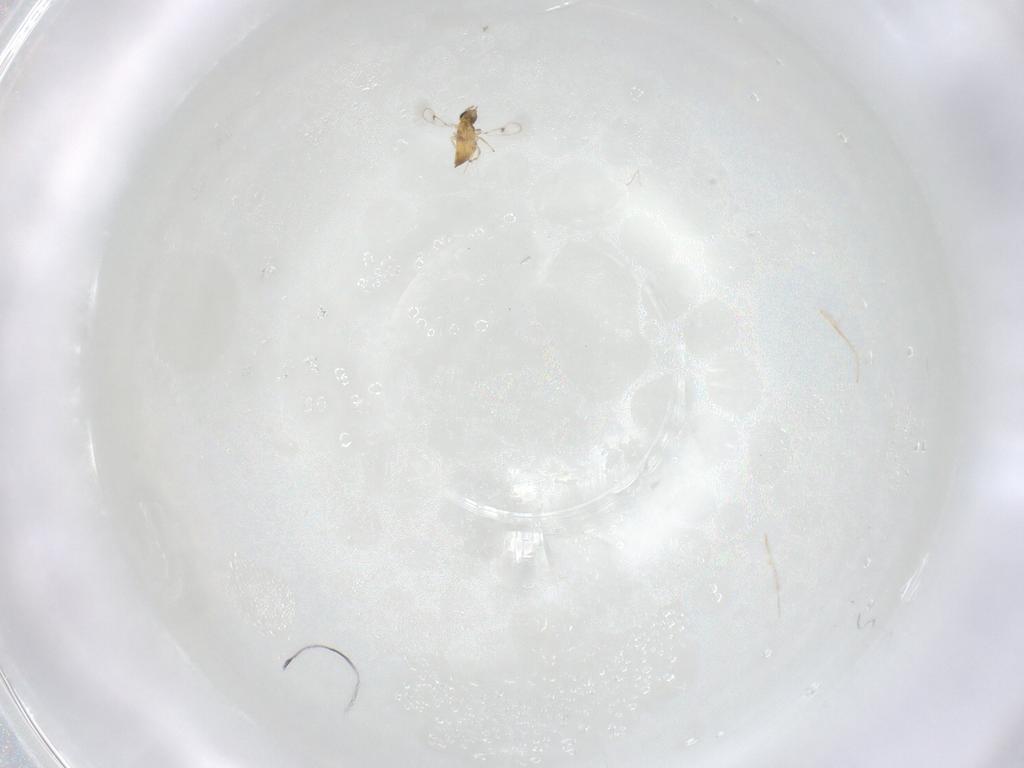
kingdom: Animalia
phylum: Arthropoda
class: Insecta
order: Hymenoptera
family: Trichogrammatidae
